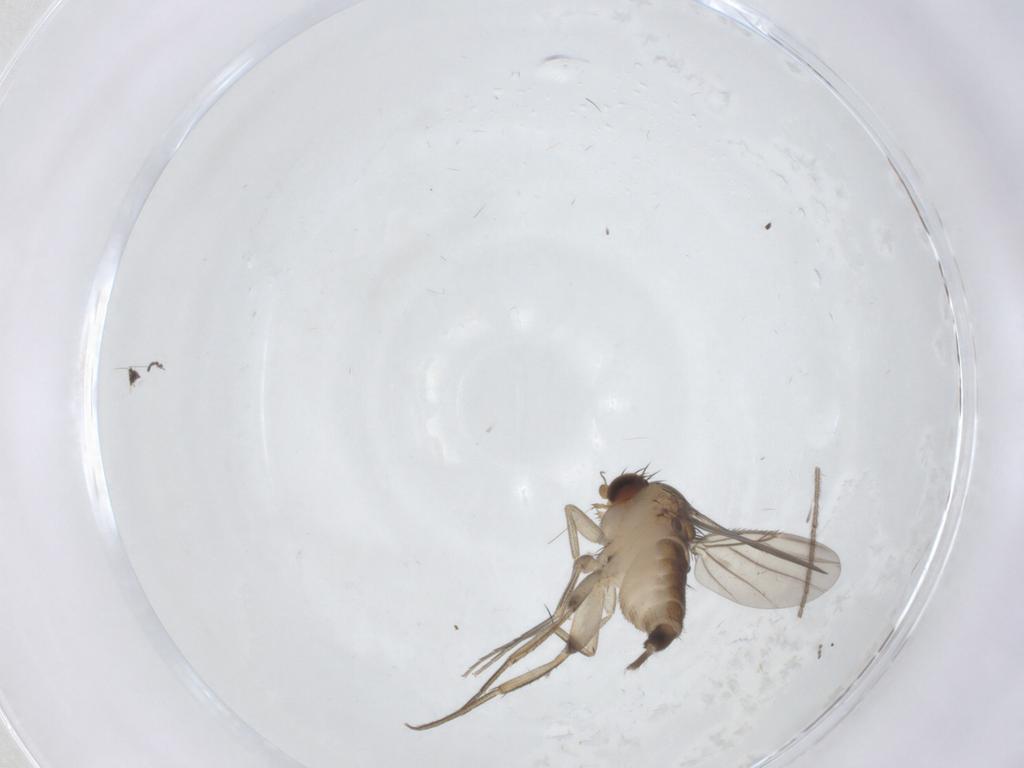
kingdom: Animalia
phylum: Arthropoda
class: Insecta
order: Diptera
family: Phoridae
